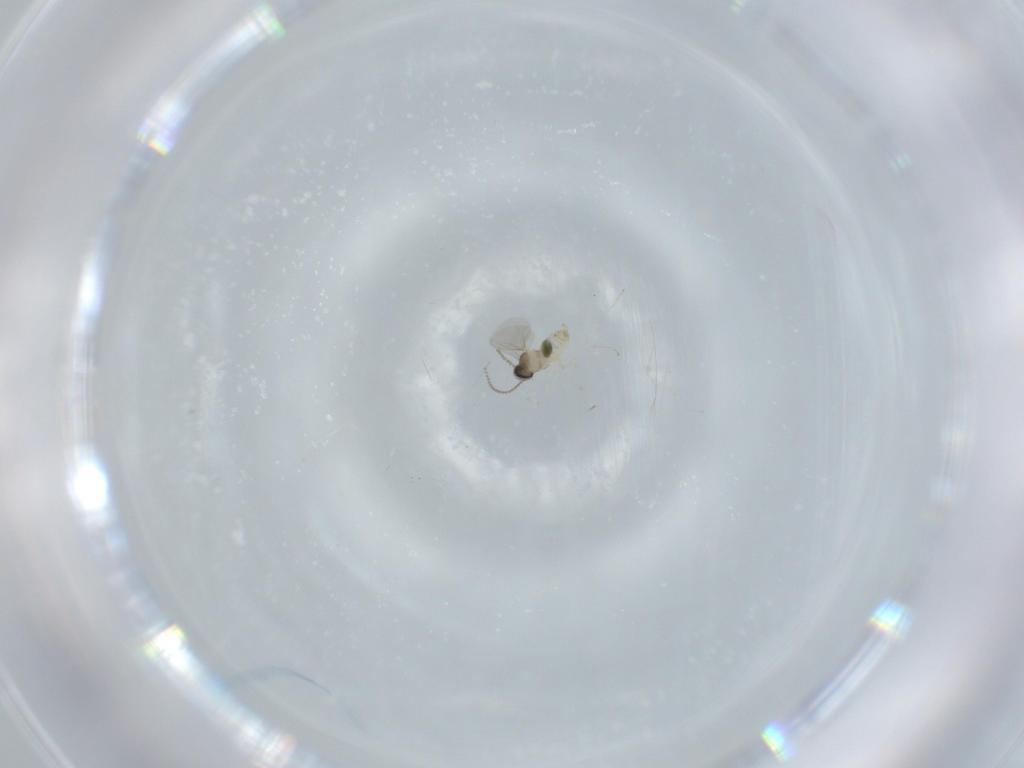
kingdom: Animalia
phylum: Arthropoda
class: Insecta
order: Diptera
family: Cecidomyiidae
